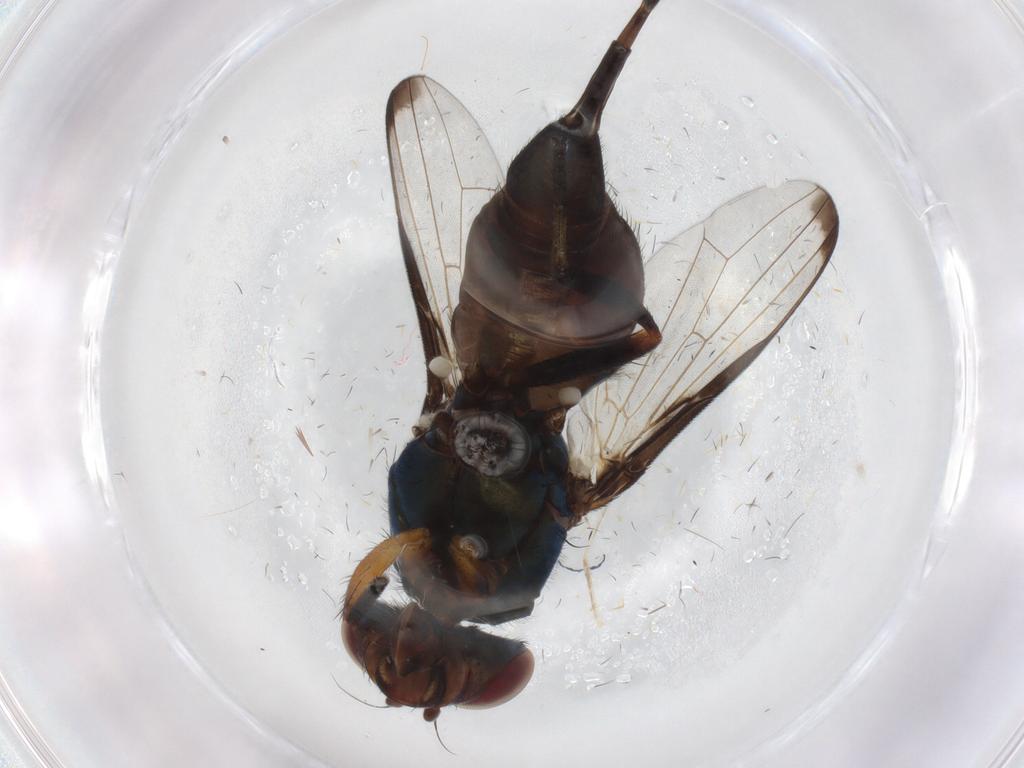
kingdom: Animalia
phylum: Arthropoda
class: Insecta
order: Diptera
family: Ulidiidae
